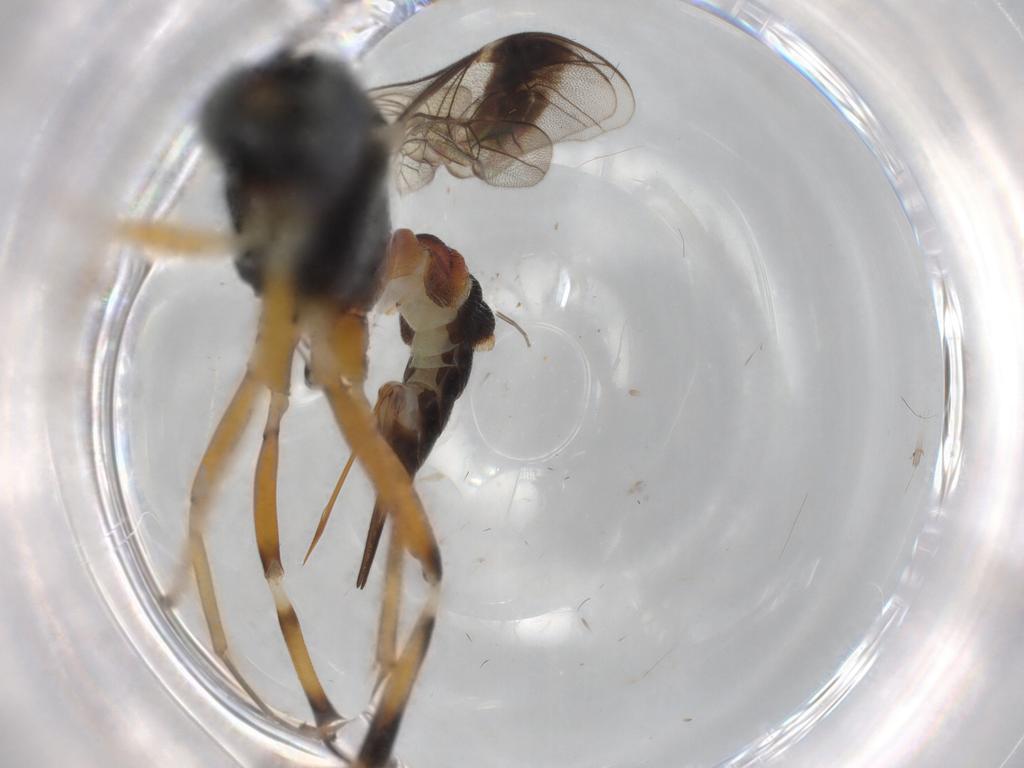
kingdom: Animalia
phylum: Arthropoda
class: Insecta
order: Hymenoptera
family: Ichneumonidae
